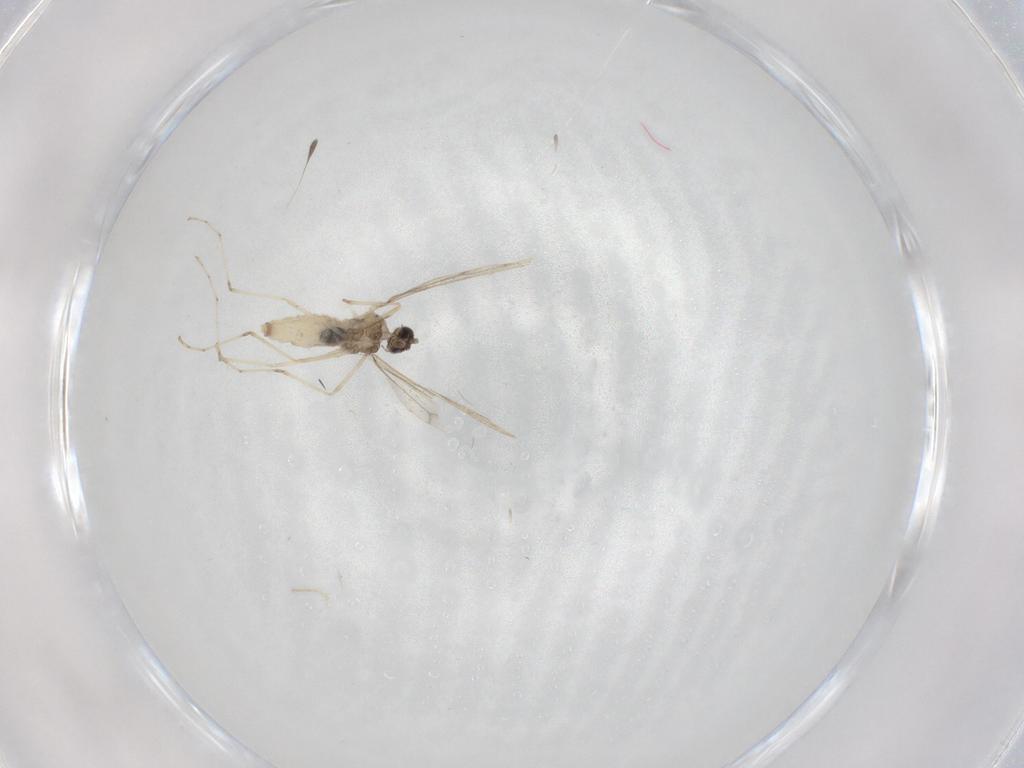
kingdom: Animalia
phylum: Arthropoda
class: Insecta
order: Diptera
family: Cecidomyiidae
